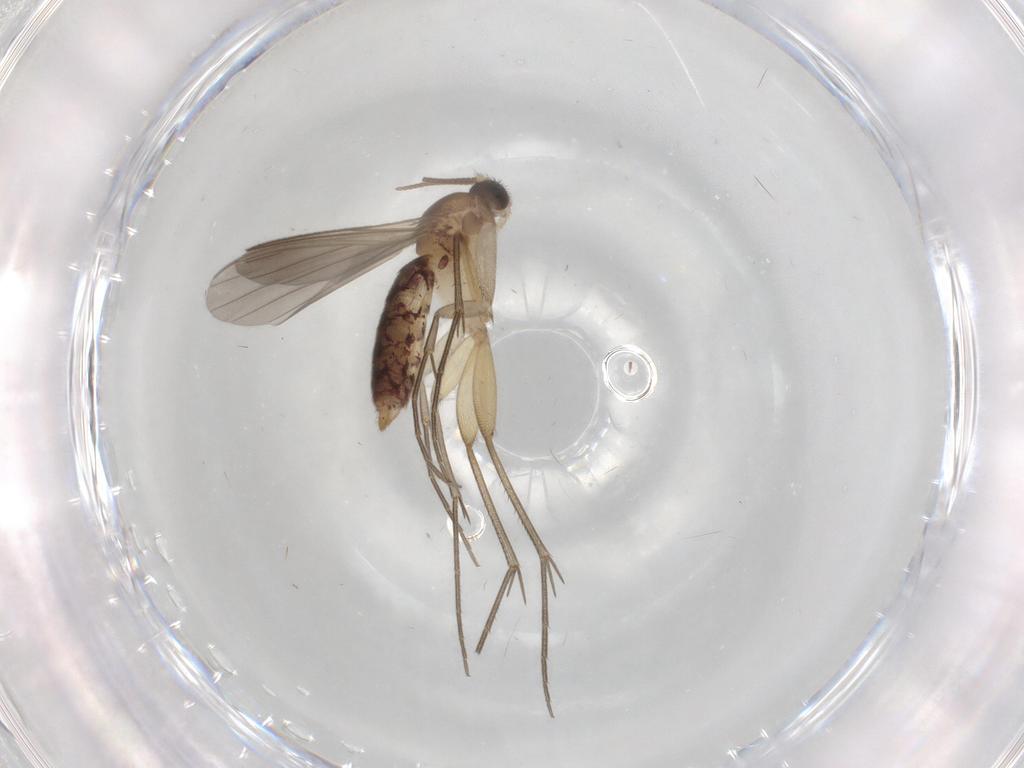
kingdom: Animalia
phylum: Arthropoda
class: Insecta
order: Diptera
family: Mycetophilidae
